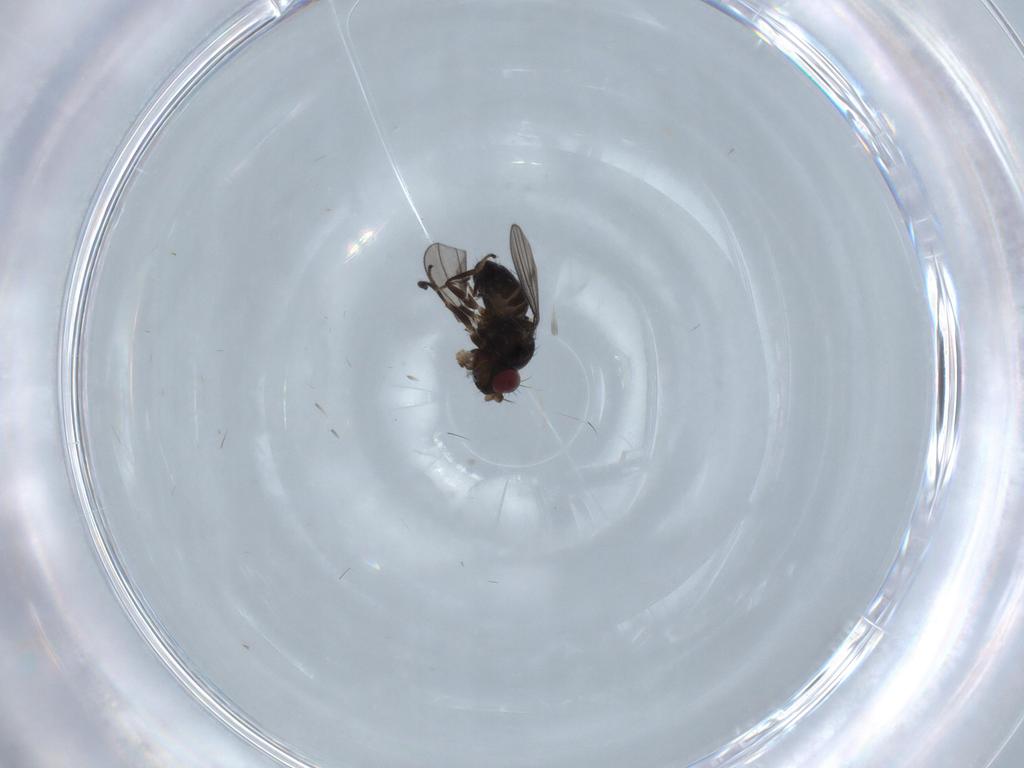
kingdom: Animalia
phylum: Arthropoda
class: Insecta
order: Diptera
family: Ephydridae
